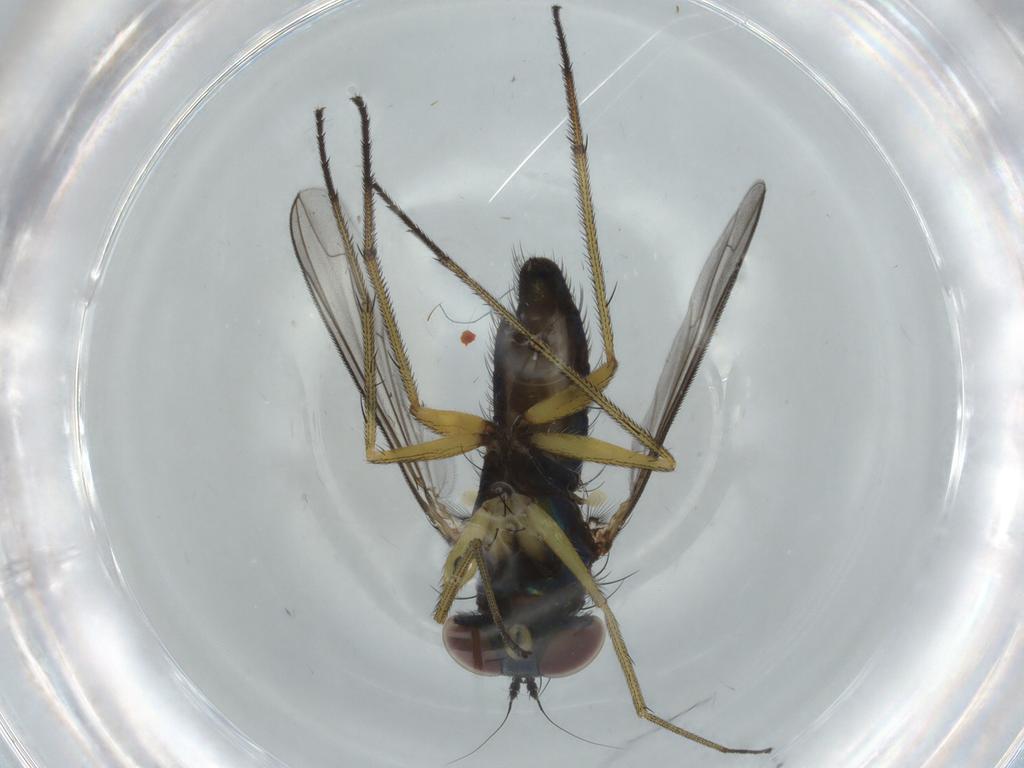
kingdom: Animalia
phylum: Arthropoda
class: Insecta
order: Diptera
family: Dolichopodidae
